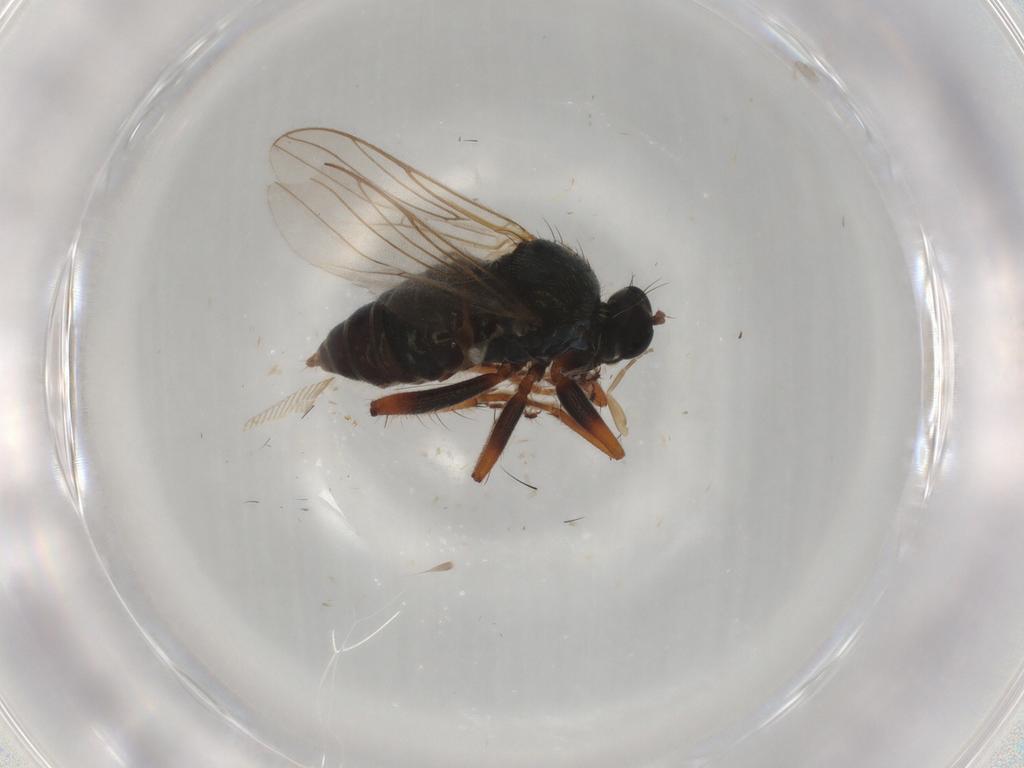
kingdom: Animalia
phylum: Arthropoda
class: Insecta
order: Diptera
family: Hybotidae
